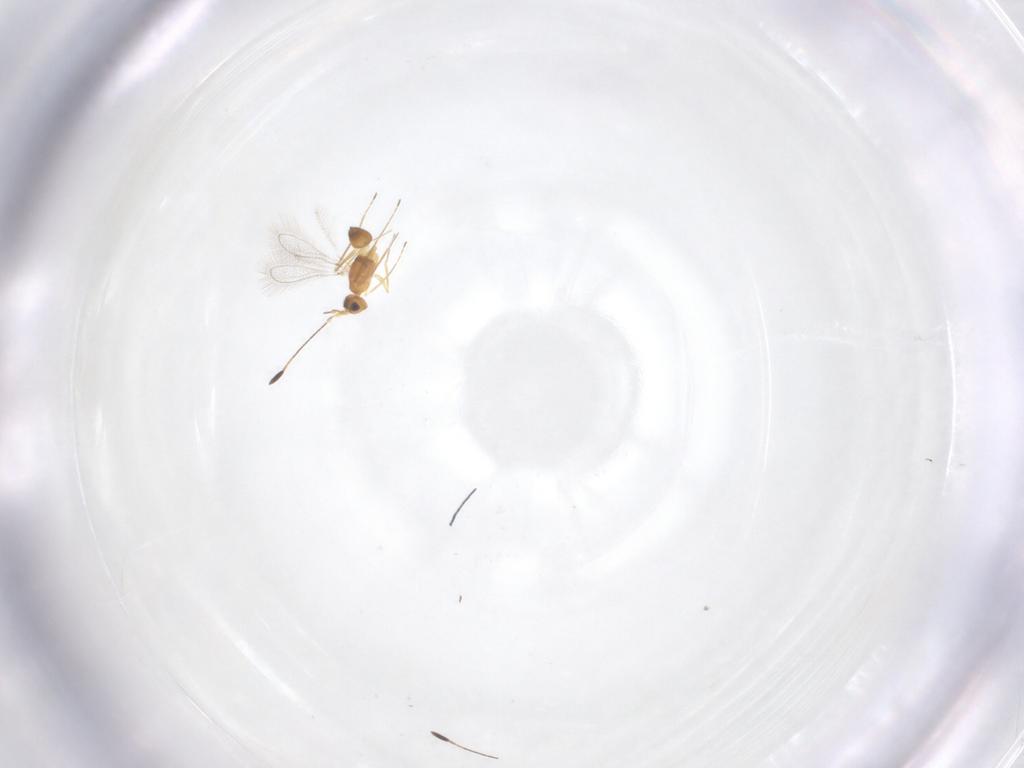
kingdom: Animalia
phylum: Arthropoda
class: Insecta
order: Hymenoptera
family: Mymaridae
